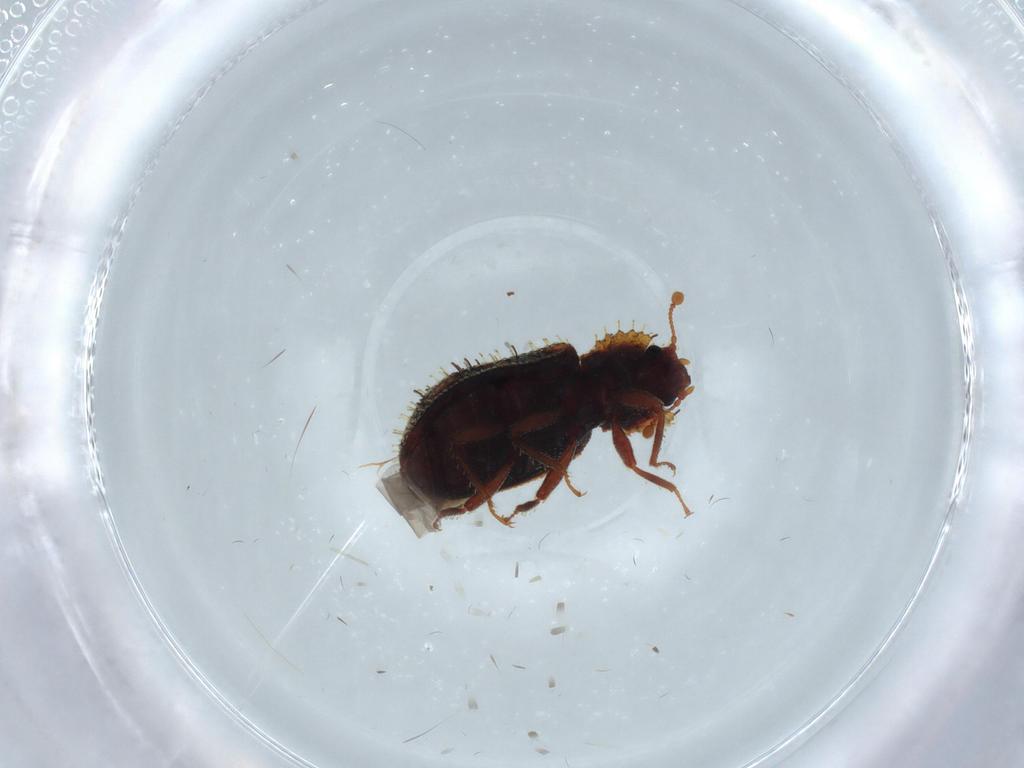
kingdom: Animalia
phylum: Arthropoda
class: Insecta
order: Coleoptera
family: Zopheridae
